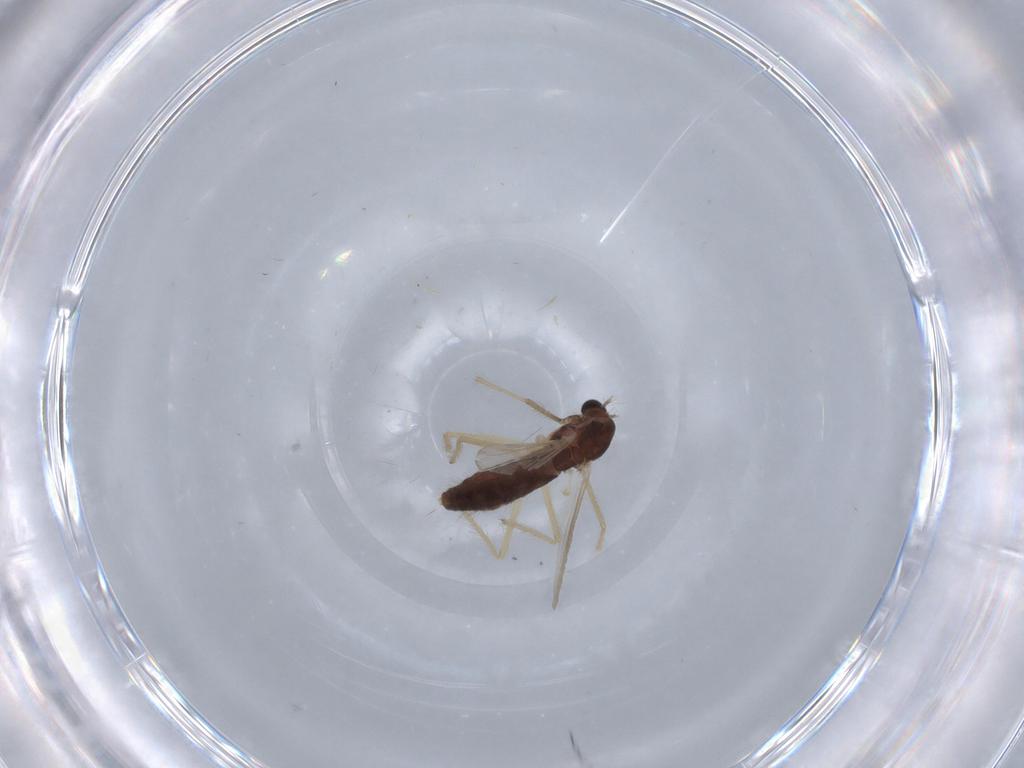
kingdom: Animalia
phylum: Arthropoda
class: Insecta
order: Diptera
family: Chironomidae
